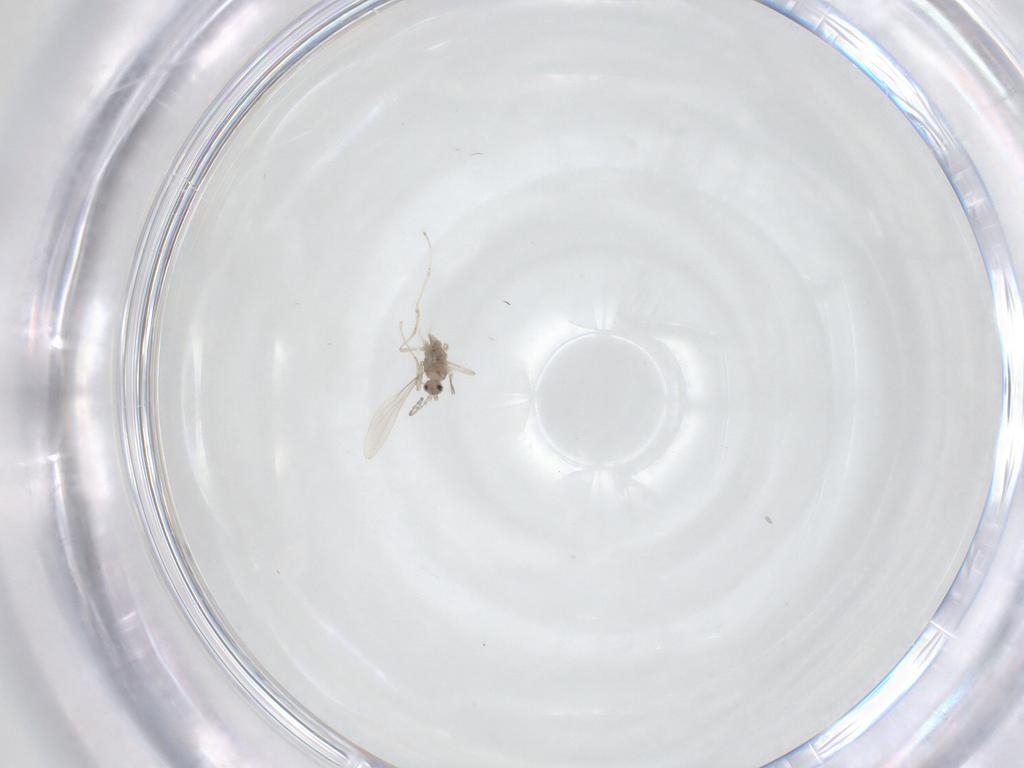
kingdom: Animalia
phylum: Arthropoda
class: Insecta
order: Diptera
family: Cecidomyiidae
